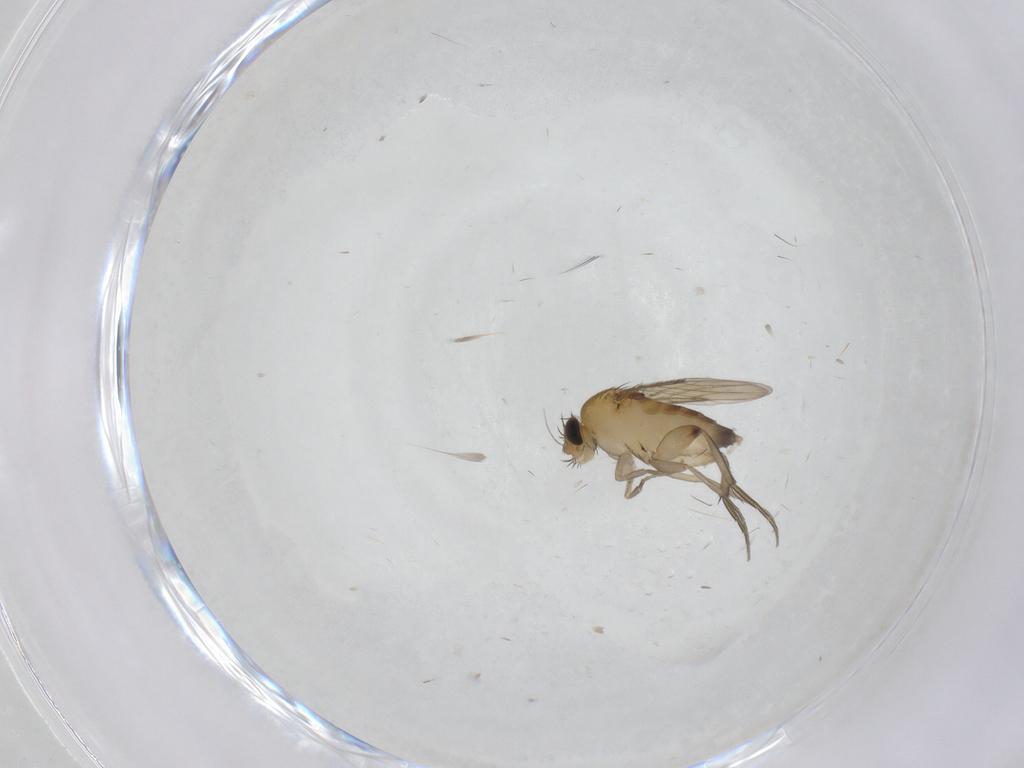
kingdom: Animalia
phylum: Arthropoda
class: Insecta
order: Diptera
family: Phoridae
